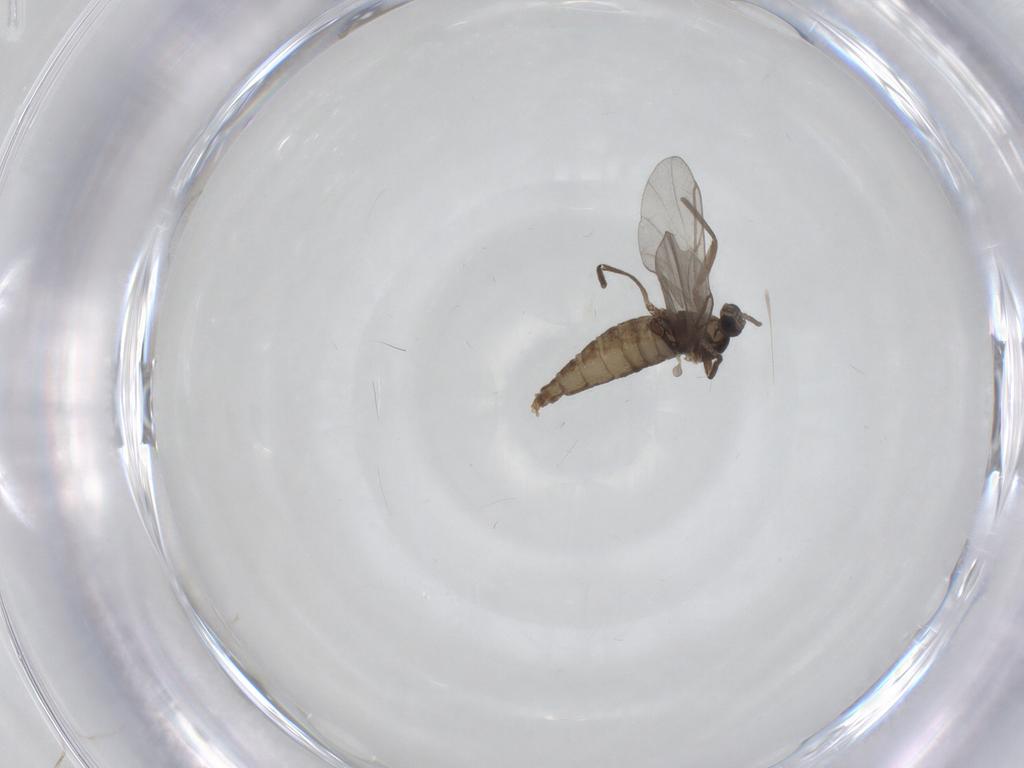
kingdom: Animalia
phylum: Arthropoda
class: Insecta
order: Diptera
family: Cecidomyiidae
